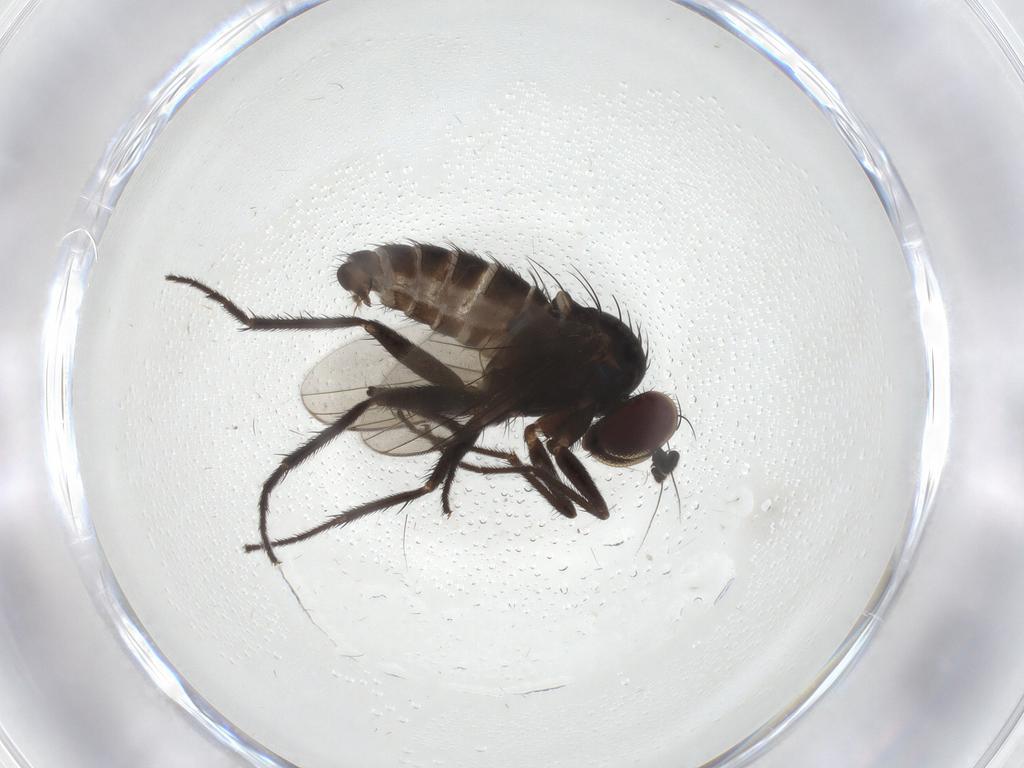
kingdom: Animalia
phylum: Arthropoda
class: Insecta
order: Diptera
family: Dolichopodidae
